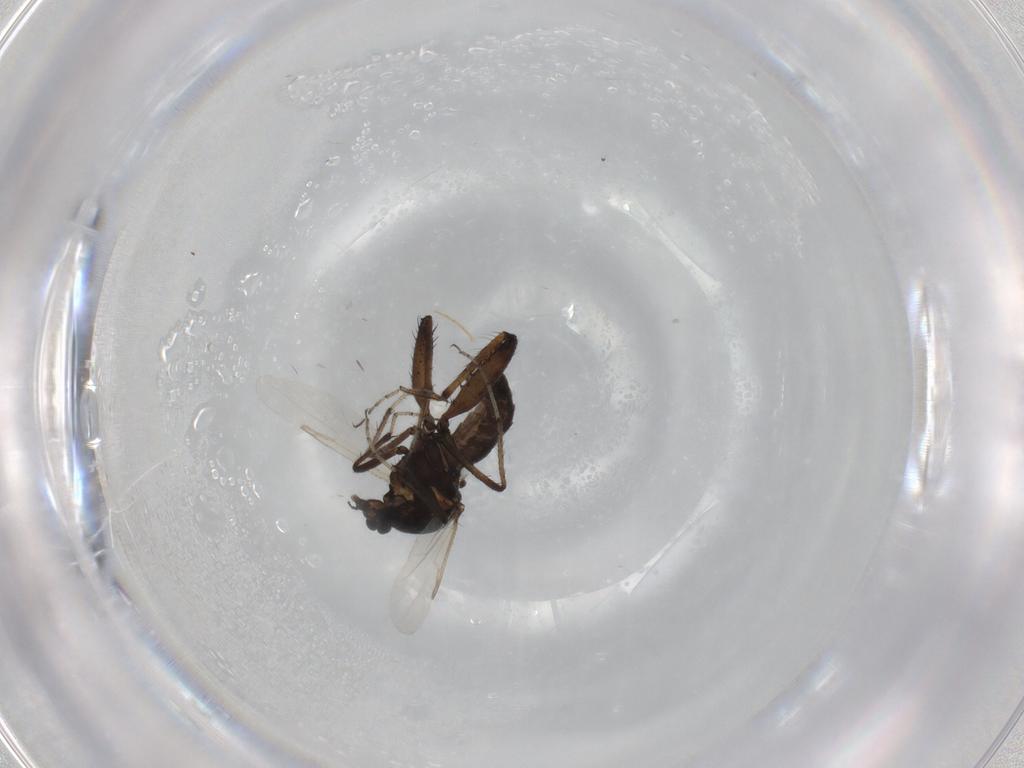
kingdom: Animalia
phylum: Arthropoda
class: Insecta
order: Diptera
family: Ceratopogonidae
